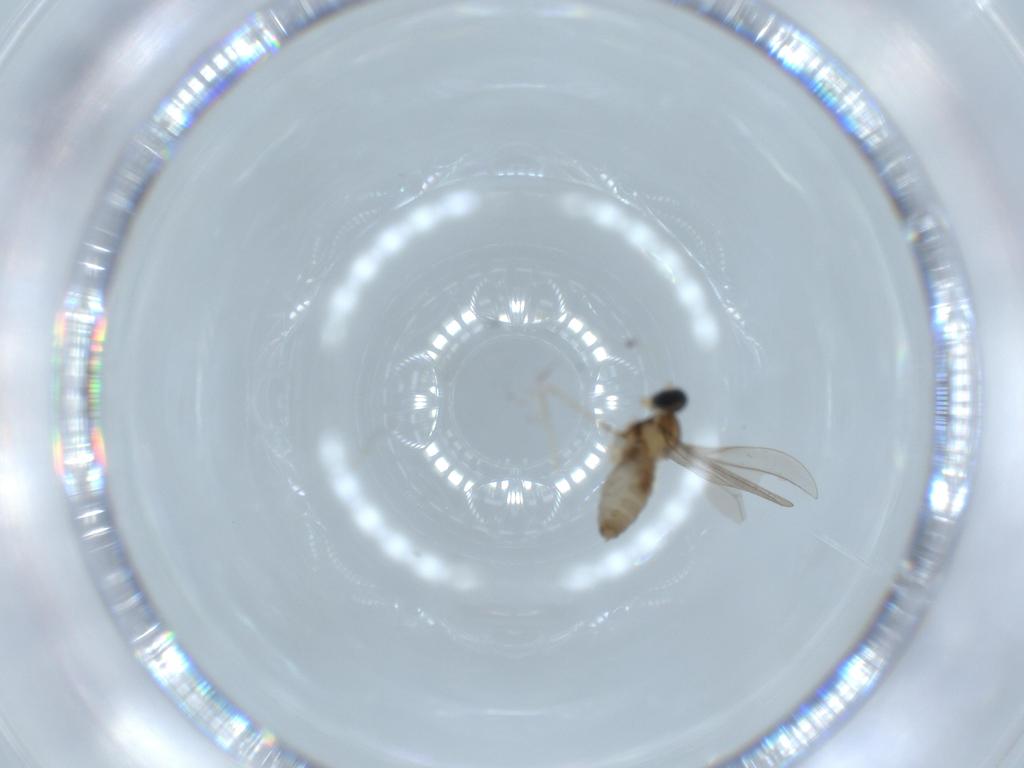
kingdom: Animalia
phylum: Arthropoda
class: Insecta
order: Diptera
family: Cecidomyiidae
